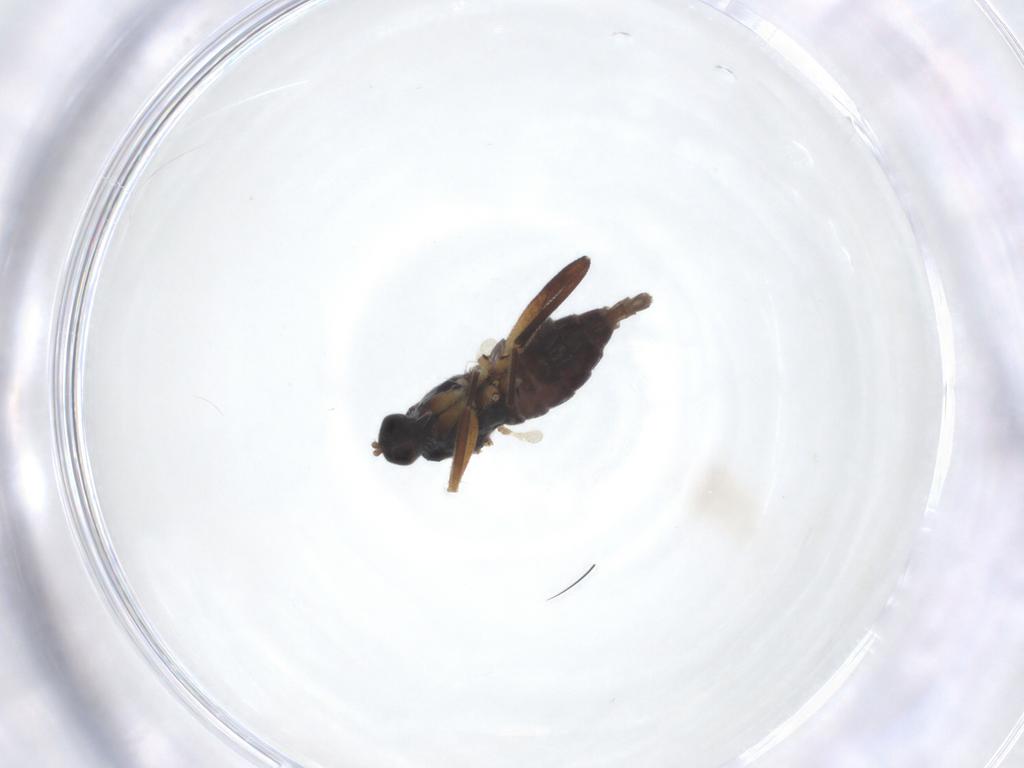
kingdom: Animalia
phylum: Arthropoda
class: Insecta
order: Diptera
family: Hybotidae
